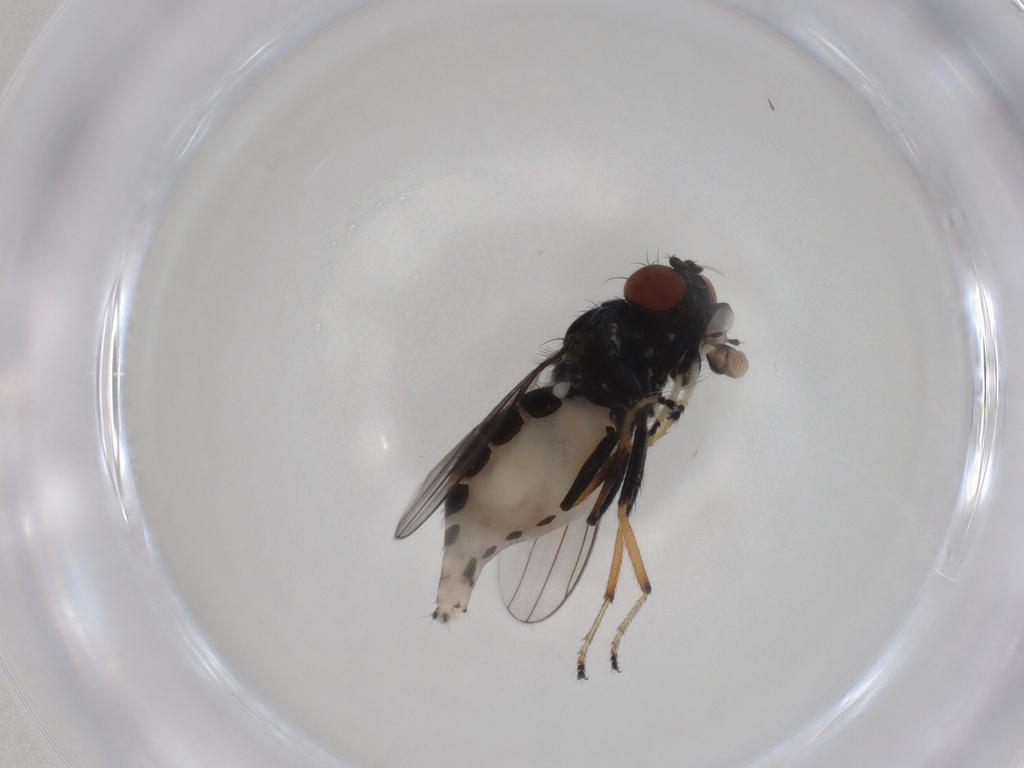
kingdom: Animalia
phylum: Arthropoda
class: Insecta
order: Diptera
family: Ephydridae
